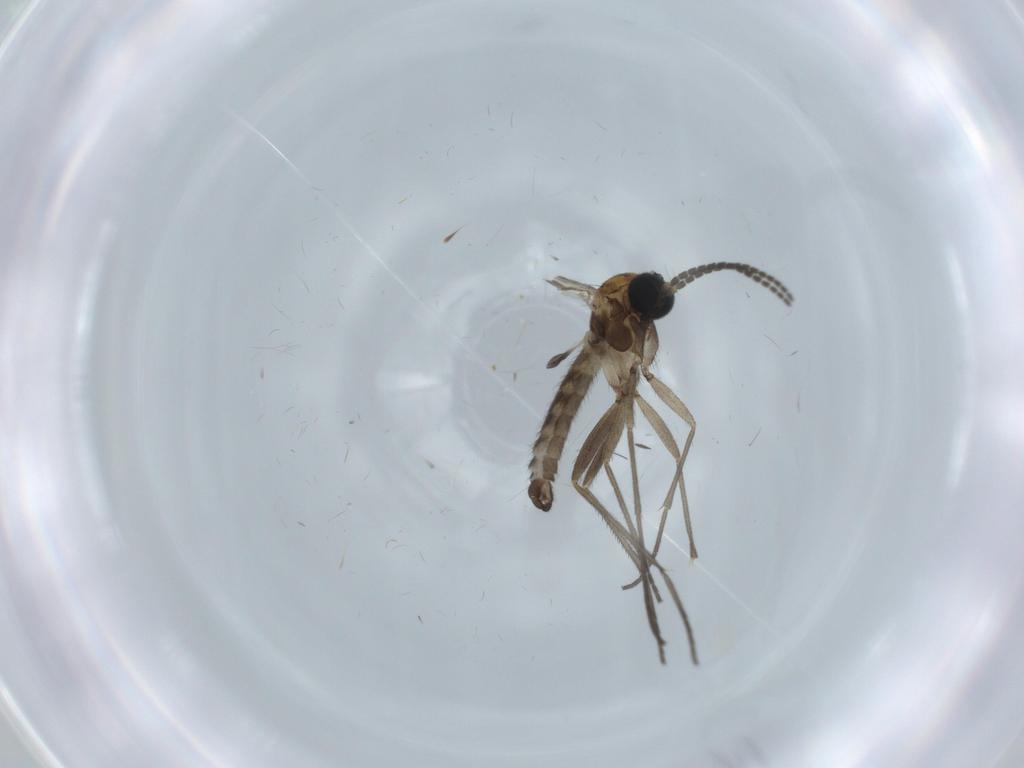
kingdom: Animalia
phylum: Arthropoda
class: Insecta
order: Diptera
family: Sciaridae
